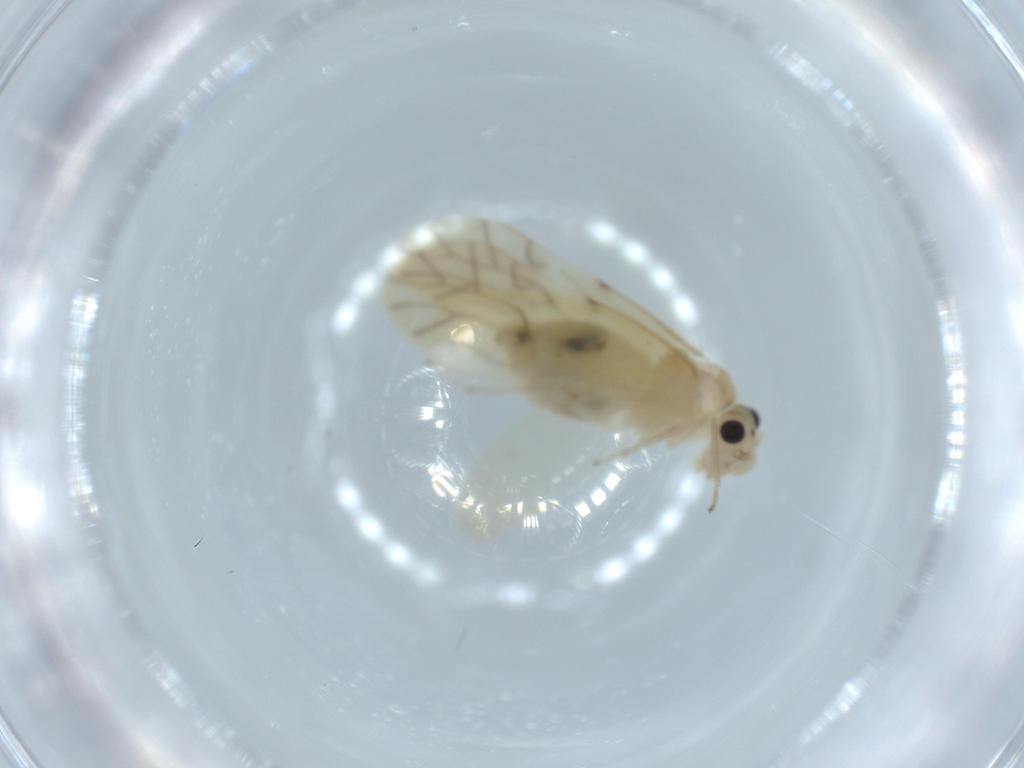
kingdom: Animalia
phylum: Arthropoda
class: Insecta
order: Psocodea
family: Caeciliusidae
